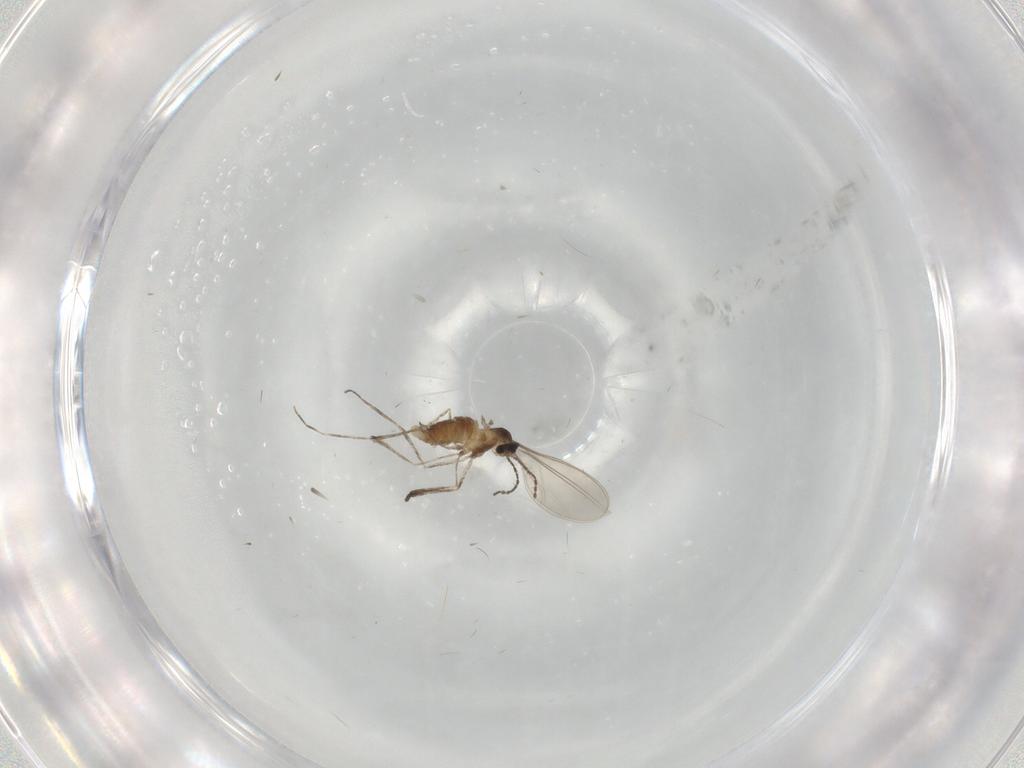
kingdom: Animalia
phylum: Arthropoda
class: Insecta
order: Diptera
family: Cecidomyiidae
